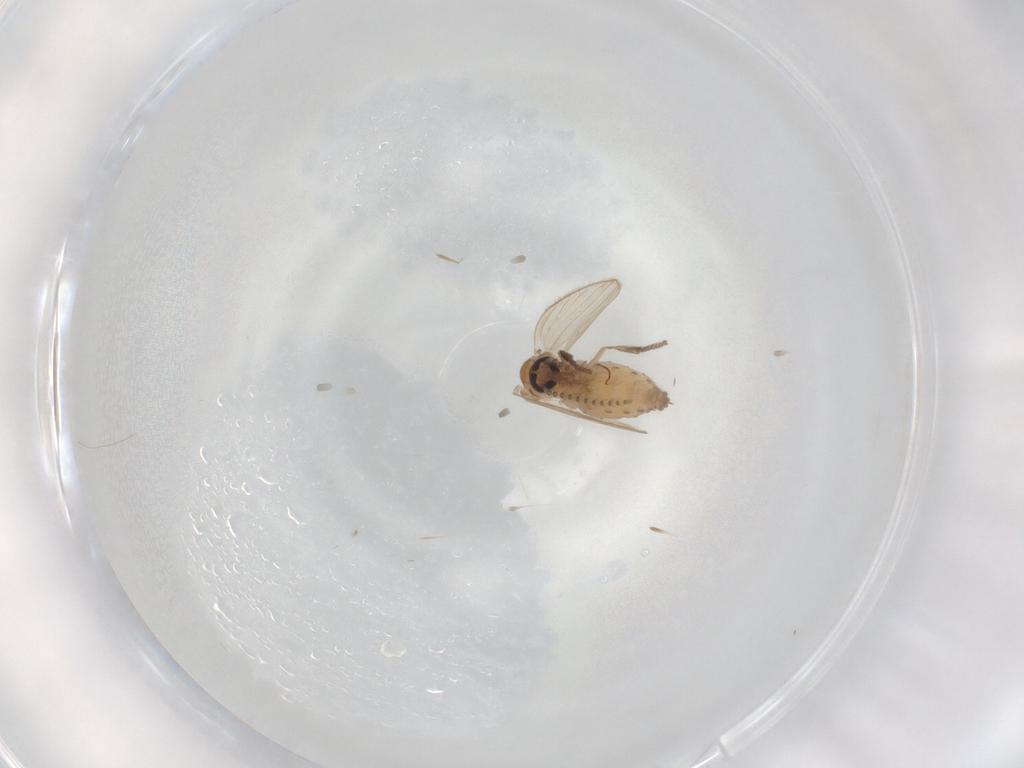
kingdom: Animalia
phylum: Arthropoda
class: Insecta
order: Diptera
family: Psychodidae
